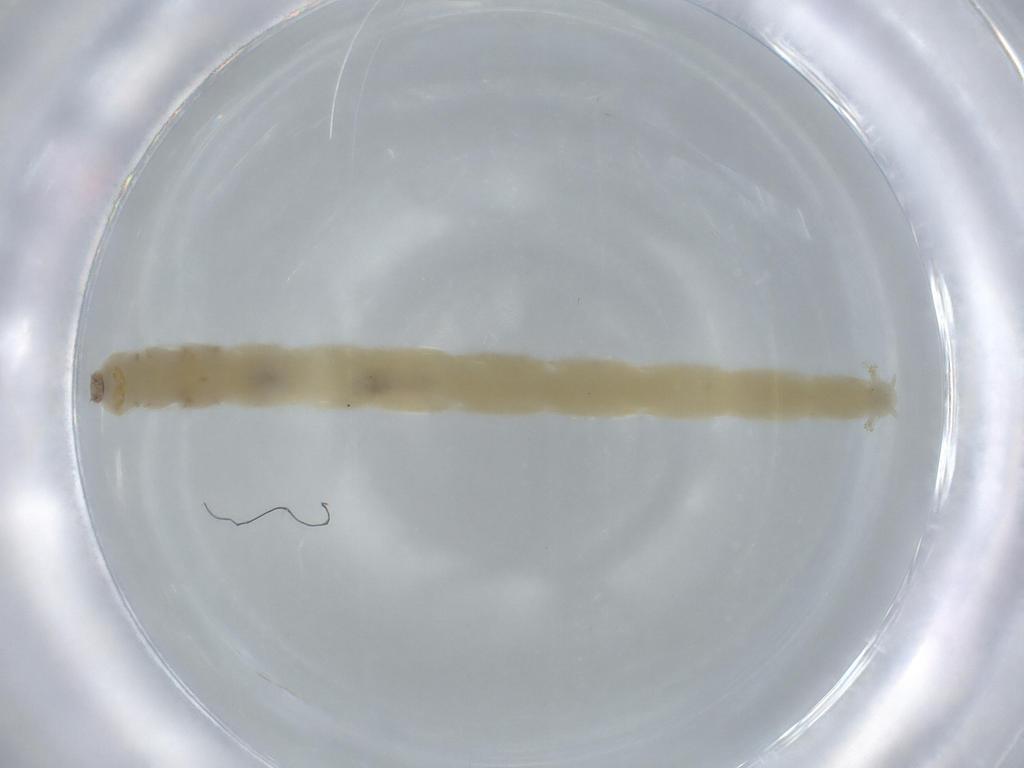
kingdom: Animalia
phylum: Arthropoda
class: Insecta
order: Diptera
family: Chironomidae
